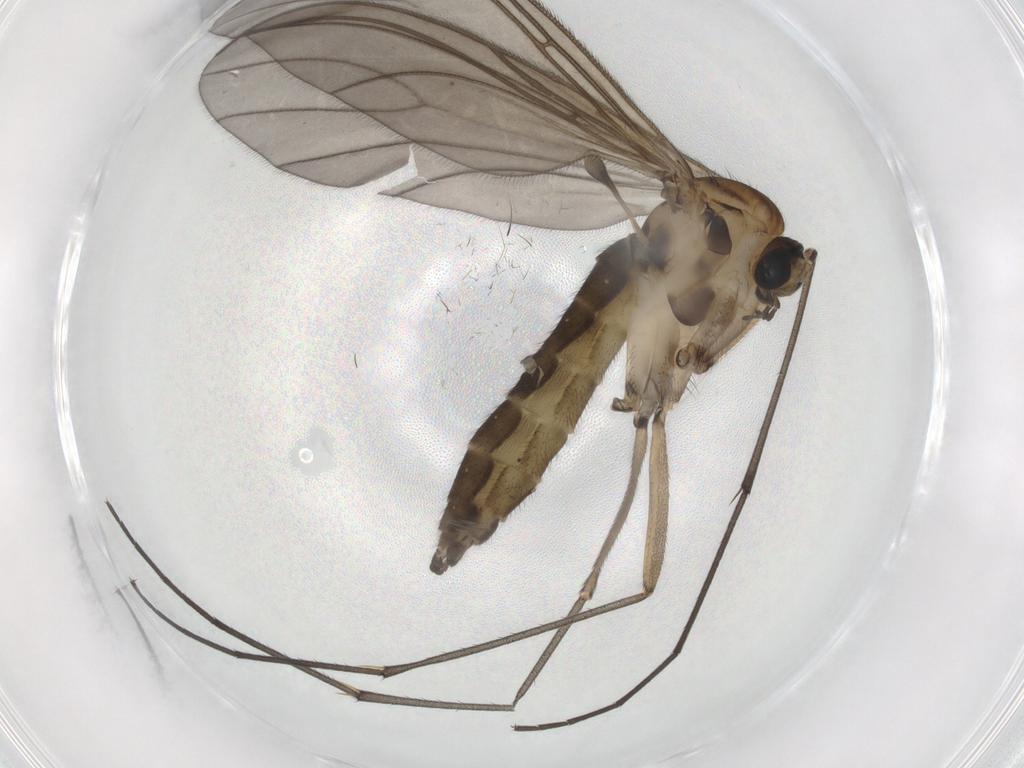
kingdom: Animalia
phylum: Arthropoda
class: Insecta
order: Diptera
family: Sciaridae
